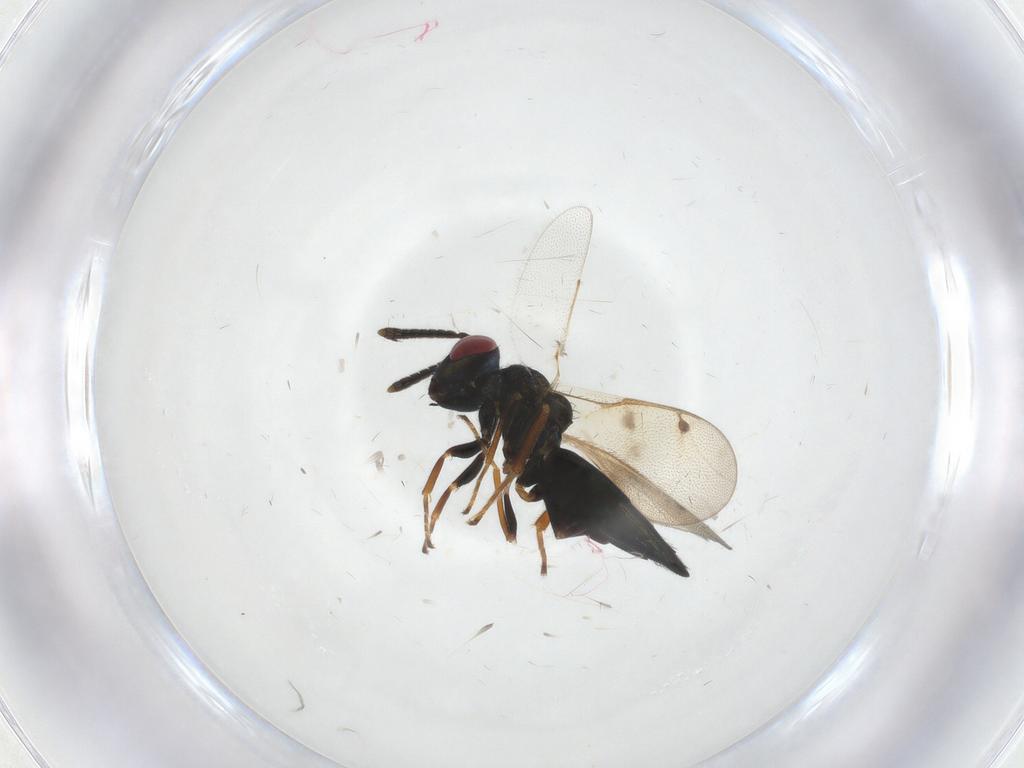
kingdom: Animalia
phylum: Arthropoda
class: Insecta
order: Hymenoptera
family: Pteromalidae
